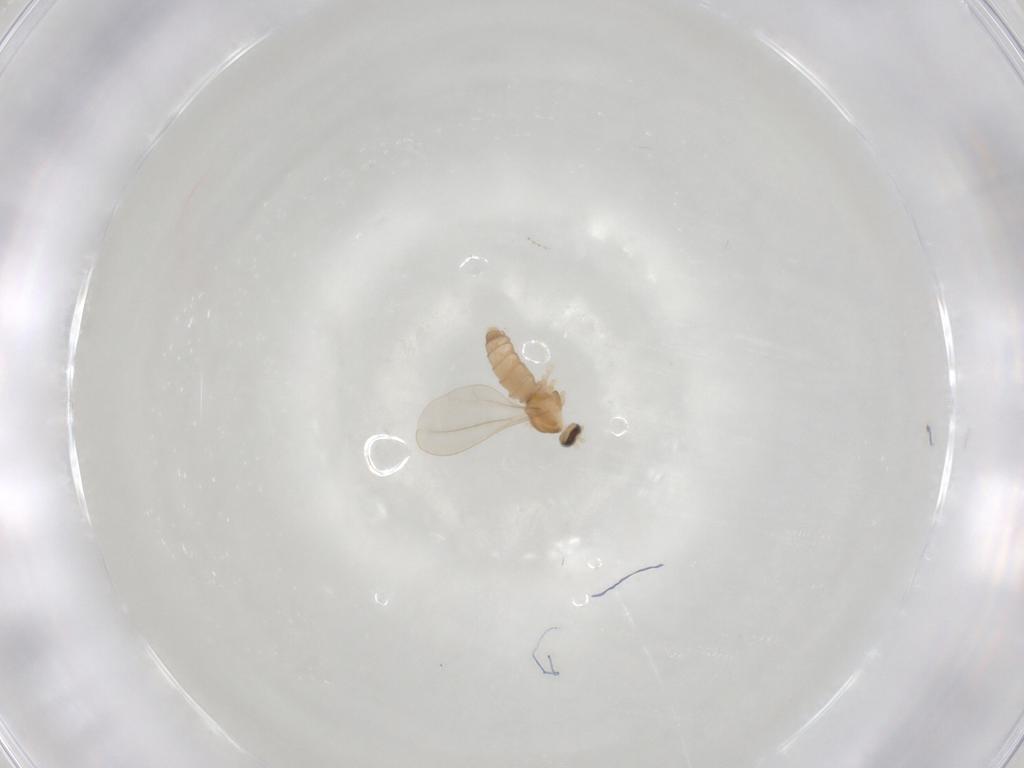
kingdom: Animalia
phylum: Arthropoda
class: Insecta
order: Diptera
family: Cecidomyiidae
